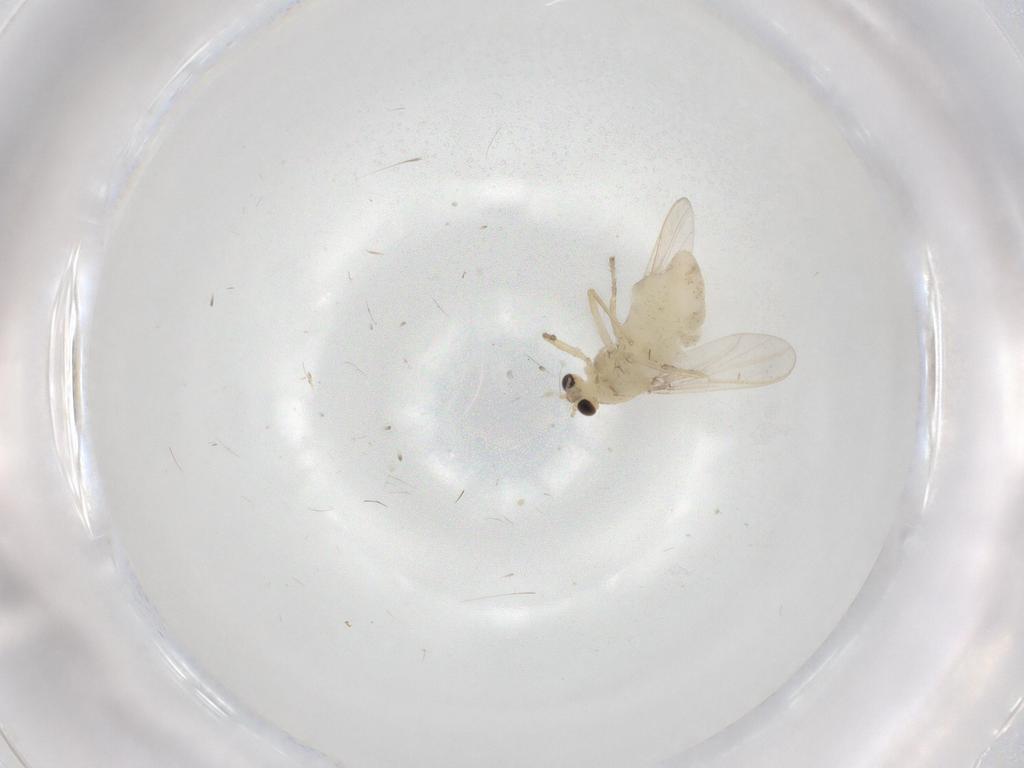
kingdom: Animalia
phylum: Arthropoda
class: Insecta
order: Diptera
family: Chironomidae
